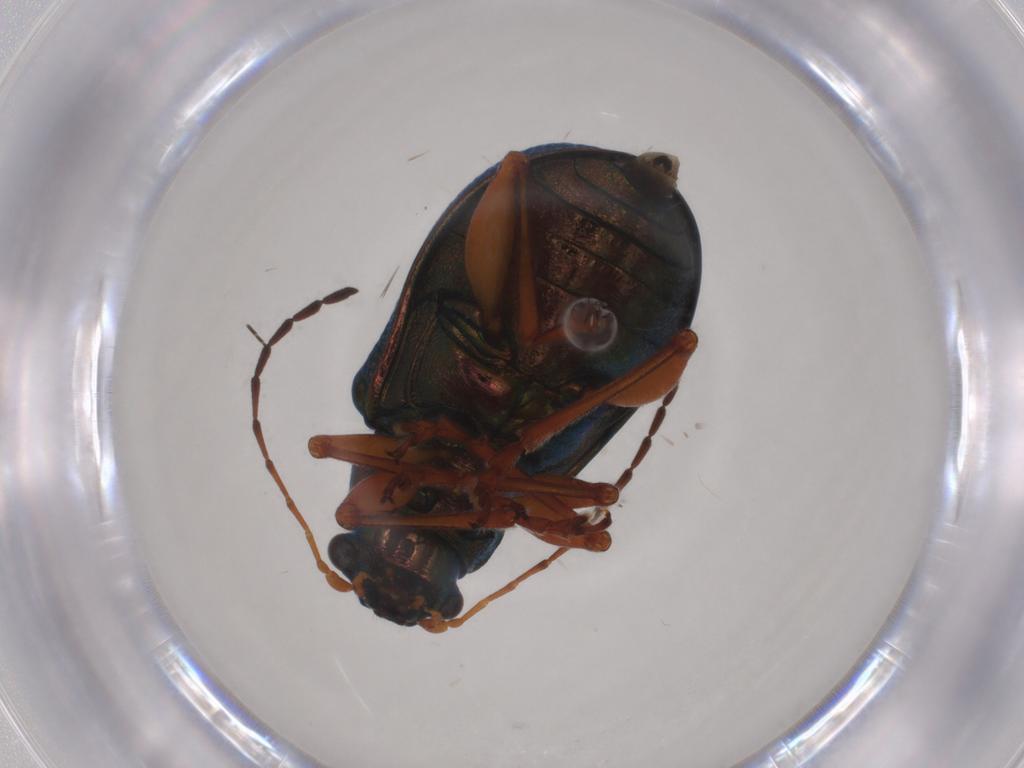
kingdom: Animalia
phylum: Arthropoda
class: Insecta
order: Coleoptera
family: Chrysomelidae
